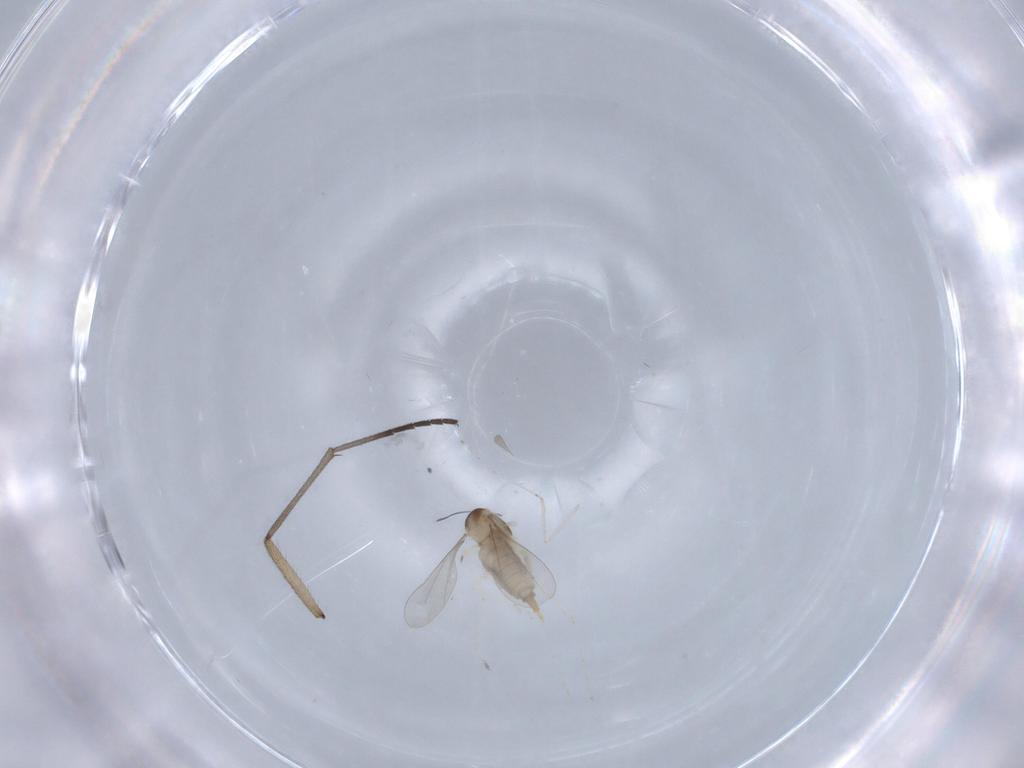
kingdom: Animalia
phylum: Arthropoda
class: Insecta
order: Diptera
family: Sciaridae
